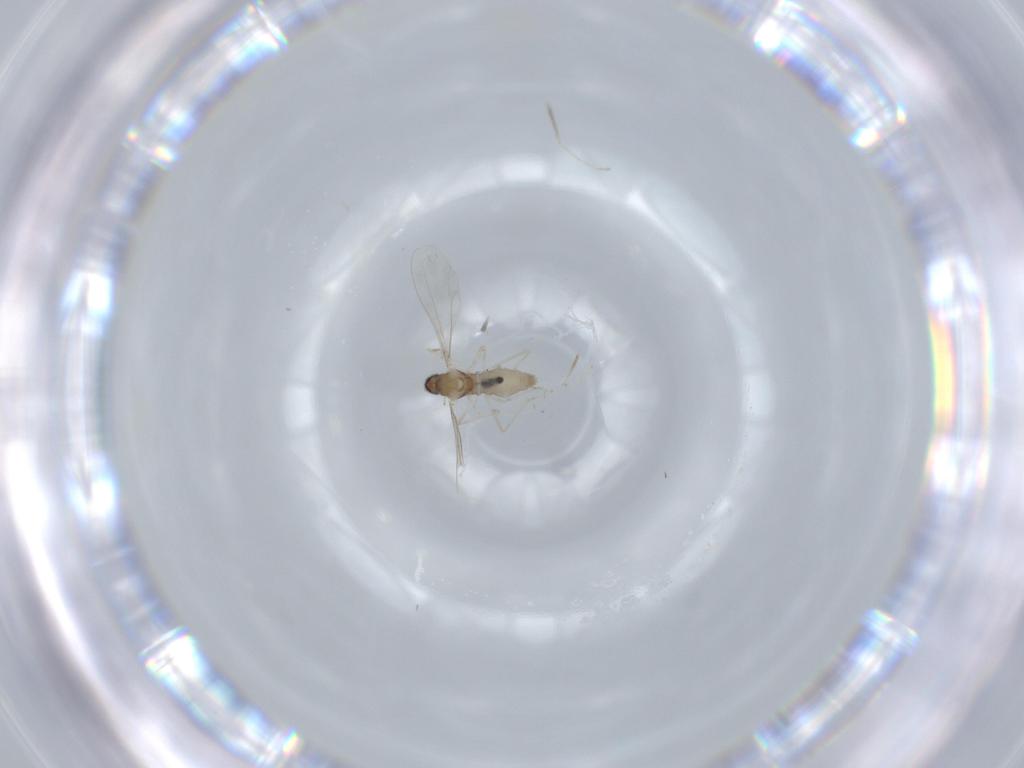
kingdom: Animalia
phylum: Arthropoda
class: Insecta
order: Diptera
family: Cecidomyiidae
